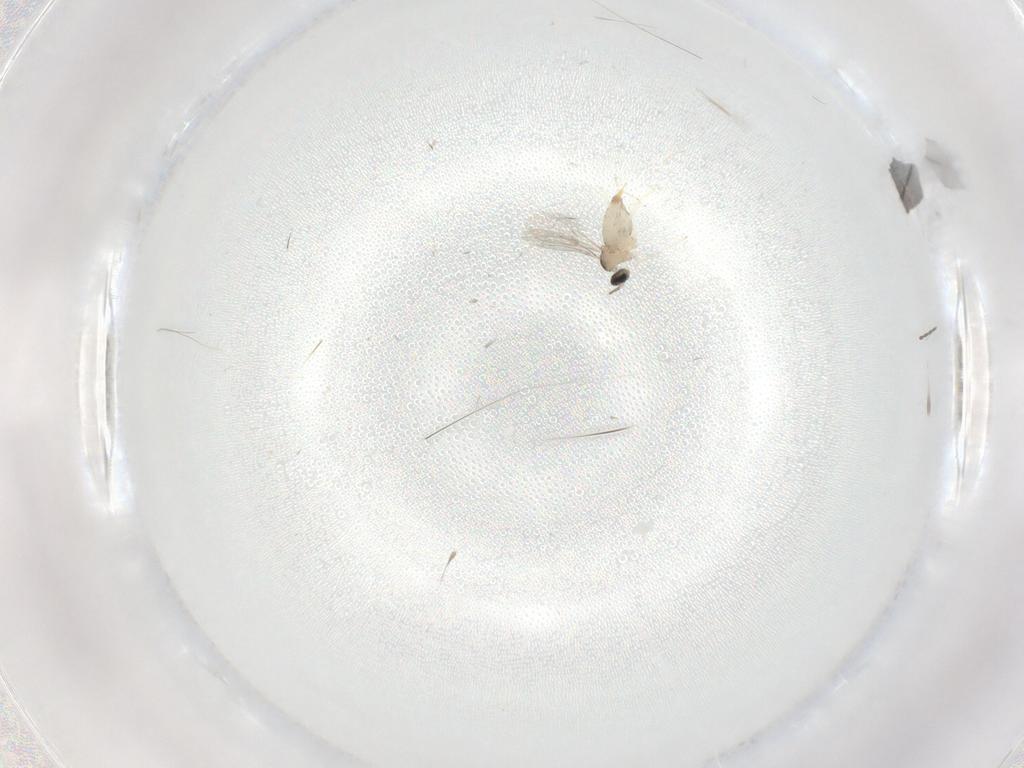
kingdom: Animalia
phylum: Arthropoda
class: Insecta
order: Diptera
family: Cecidomyiidae
